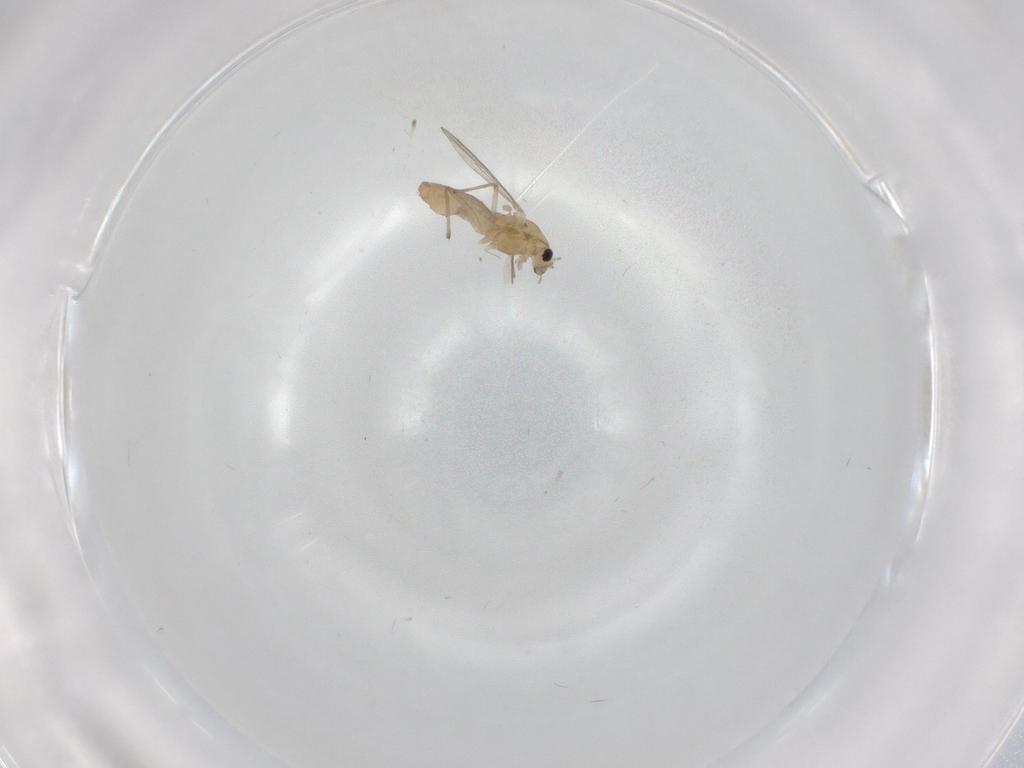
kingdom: Animalia
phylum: Arthropoda
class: Insecta
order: Diptera
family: Chironomidae
